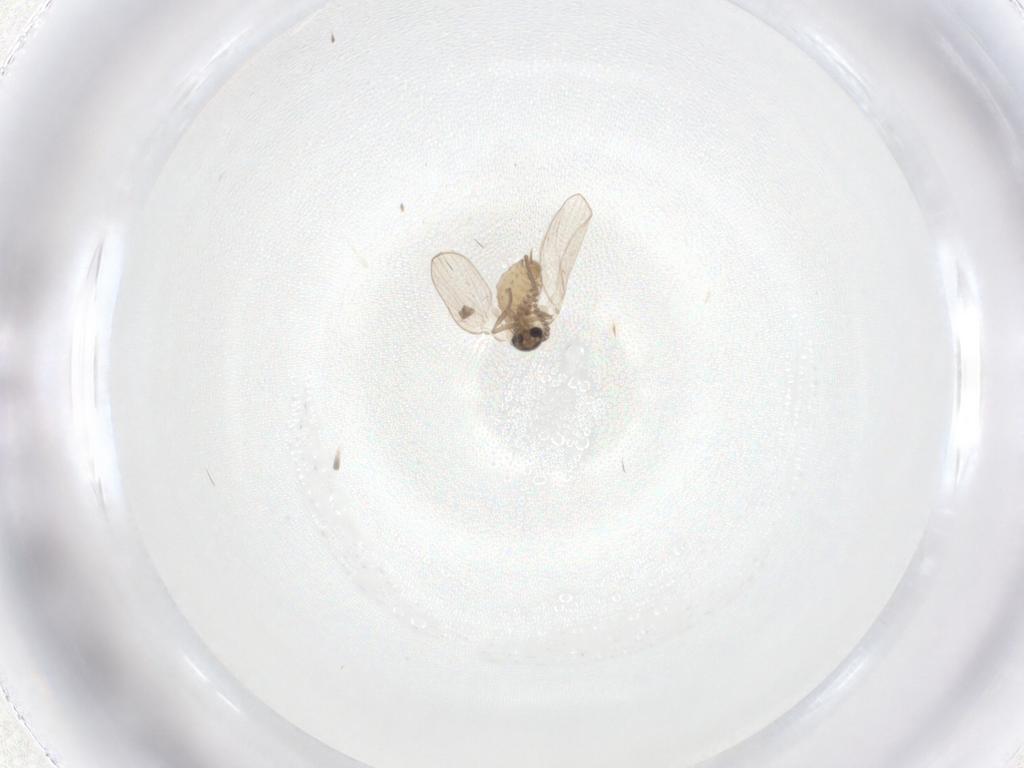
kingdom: Animalia
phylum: Arthropoda
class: Insecta
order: Diptera
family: Psychodidae
